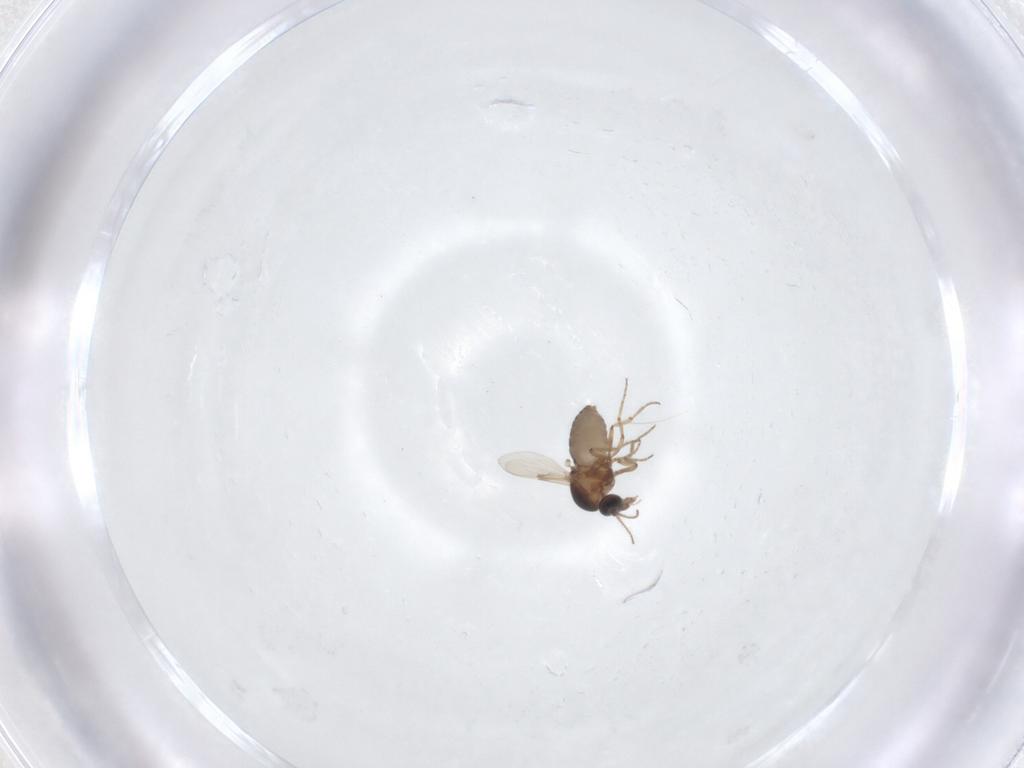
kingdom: Animalia
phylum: Arthropoda
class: Insecta
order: Diptera
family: Ceratopogonidae
